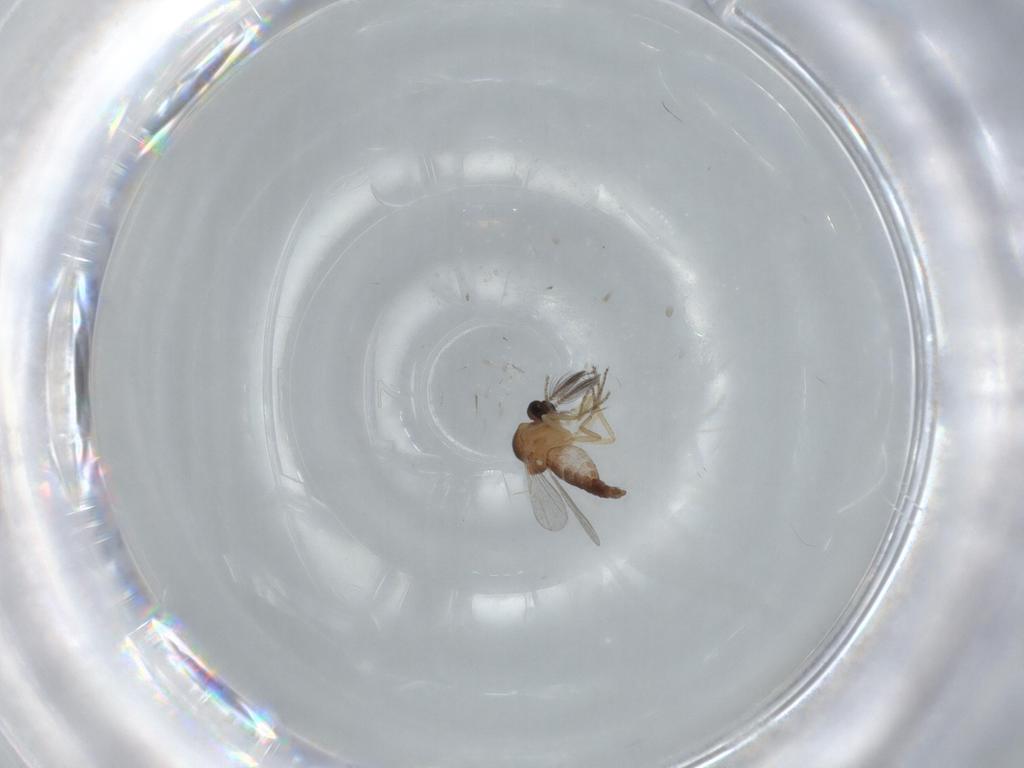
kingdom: Animalia
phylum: Arthropoda
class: Insecta
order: Diptera
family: Ceratopogonidae
